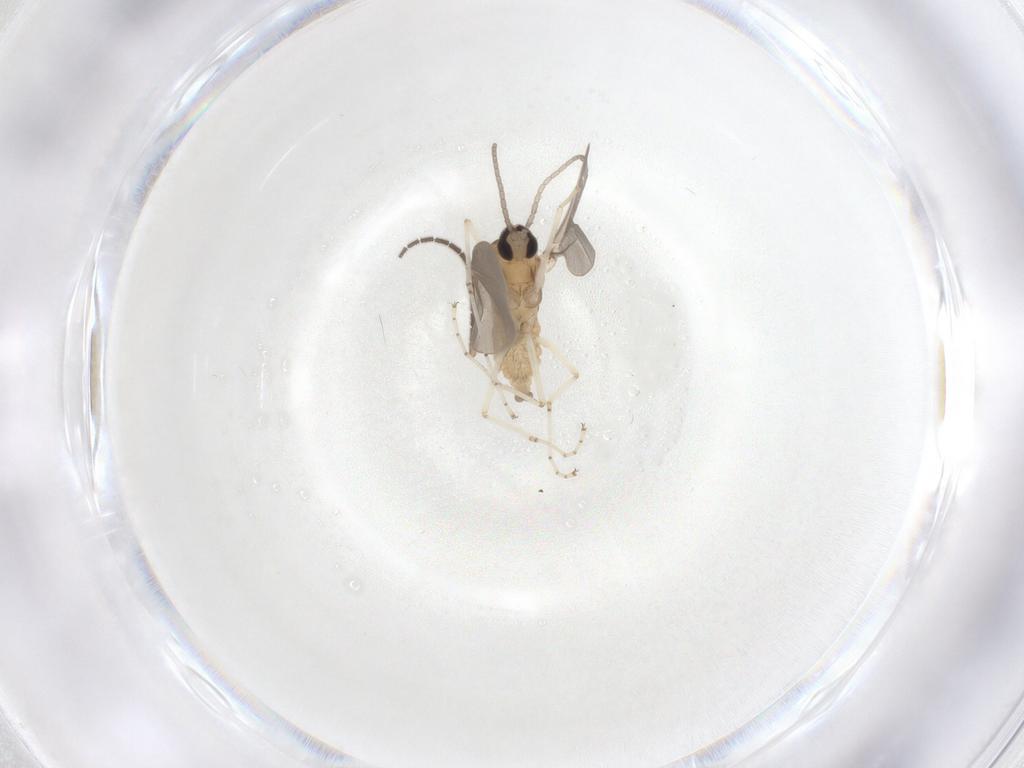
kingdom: Animalia
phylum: Arthropoda
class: Insecta
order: Diptera
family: Cecidomyiidae
